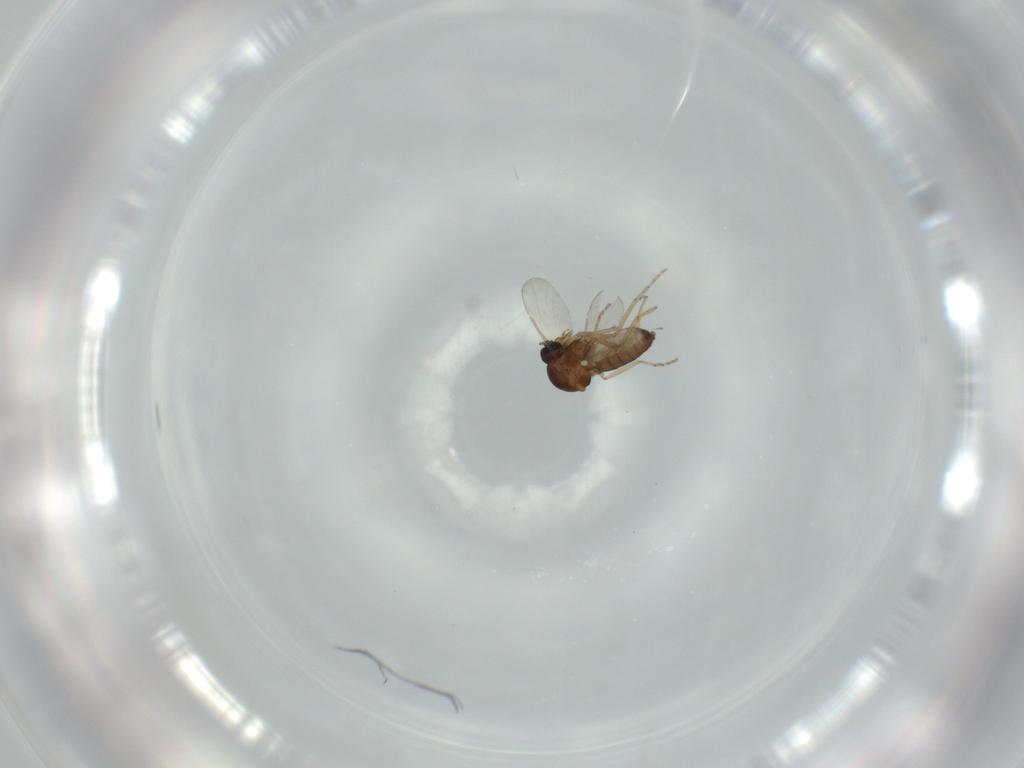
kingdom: Animalia
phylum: Arthropoda
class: Insecta
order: Diptera
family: Ceratopogonidae
